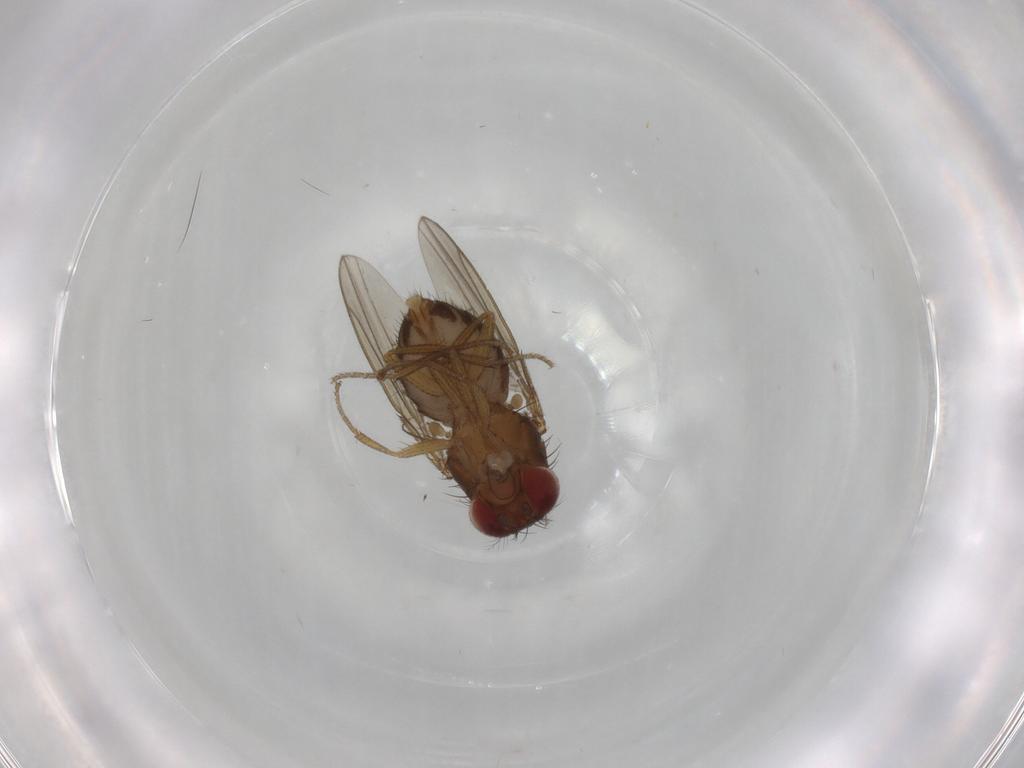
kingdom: Animalia
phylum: Arthropoda
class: Insecta
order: Diptera
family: Drosophilidae
